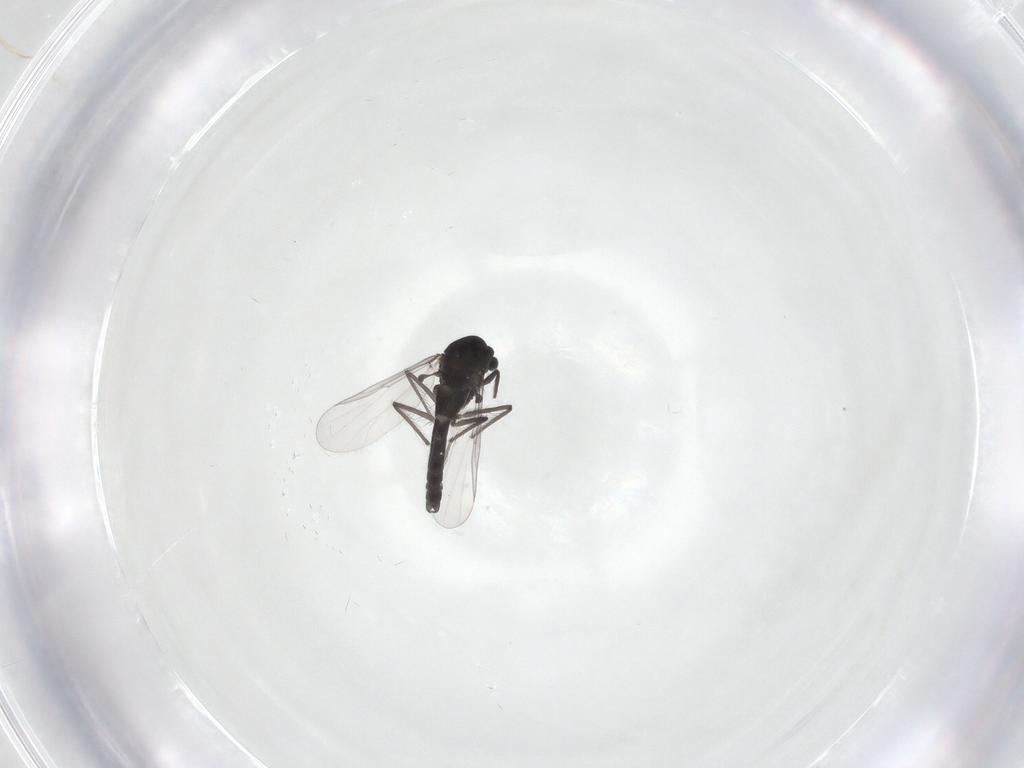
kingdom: Animalia
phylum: Arthropoda
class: Insecta
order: Diptera
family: Chironomidae
